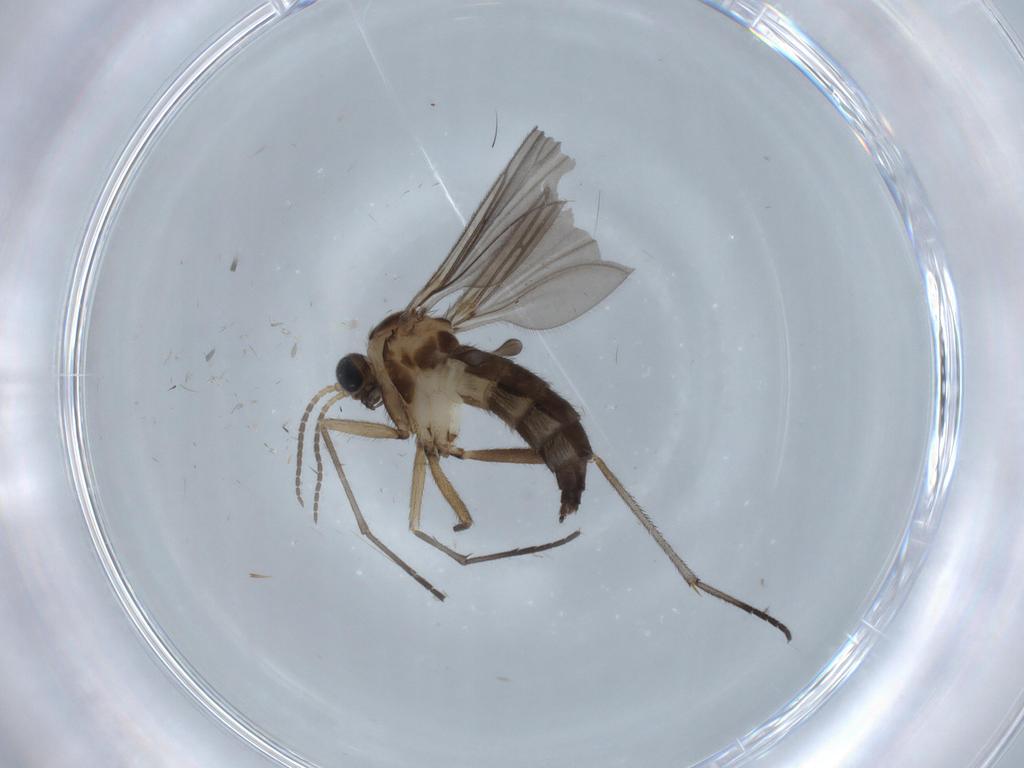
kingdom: Animalia
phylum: Arthropoda
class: Insecta
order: Diptera
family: Sciaridae
